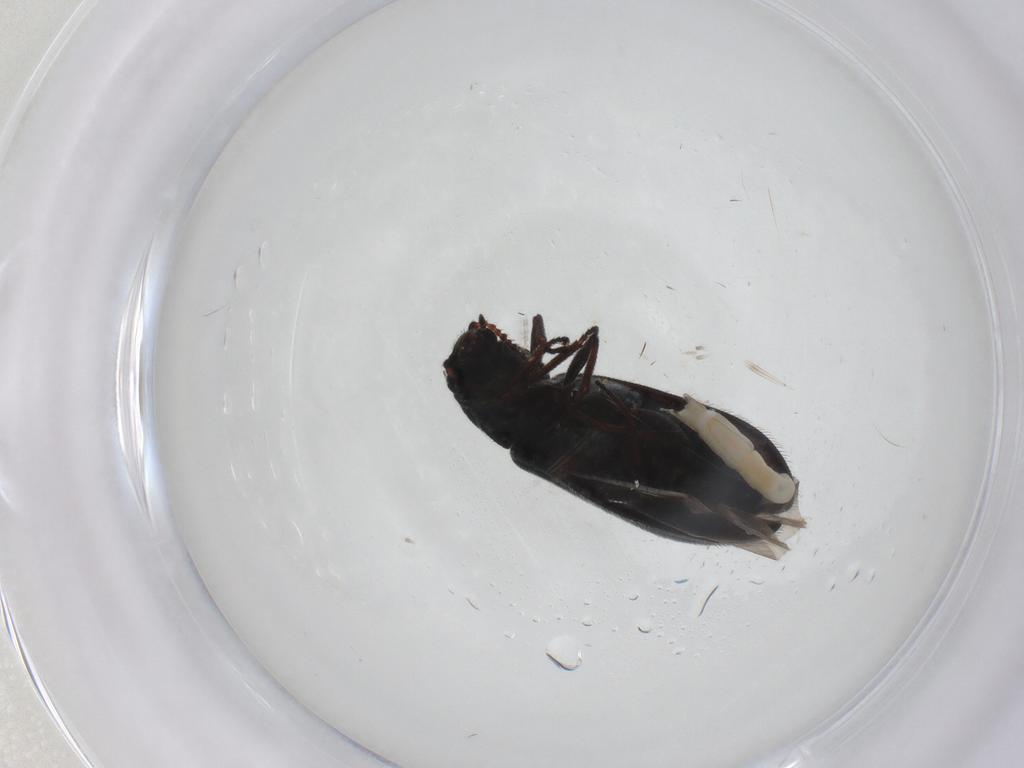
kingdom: Animalia
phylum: Arthropoda
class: Insecta
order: Coleoptera
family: Melyridae
